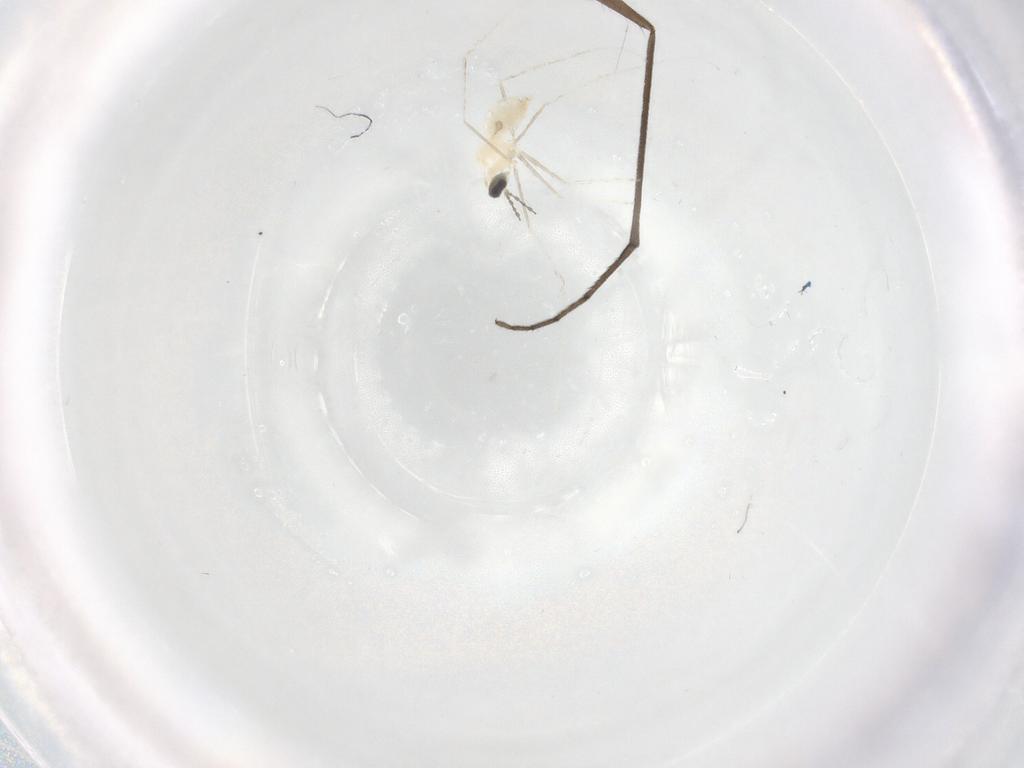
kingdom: Animalia
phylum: Arthropoda
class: Insecta
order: Diptera
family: Cecidomyiidae
